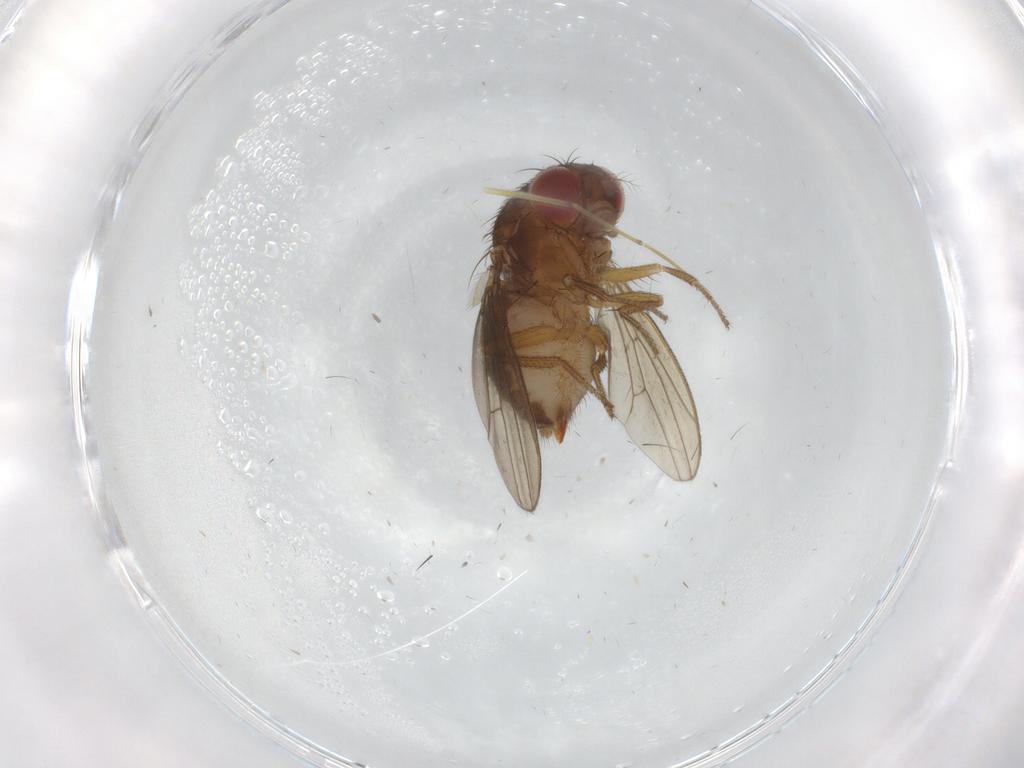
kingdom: Animalia
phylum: Arthropoda
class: Insecta
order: Diptera
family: Drosophilidae
